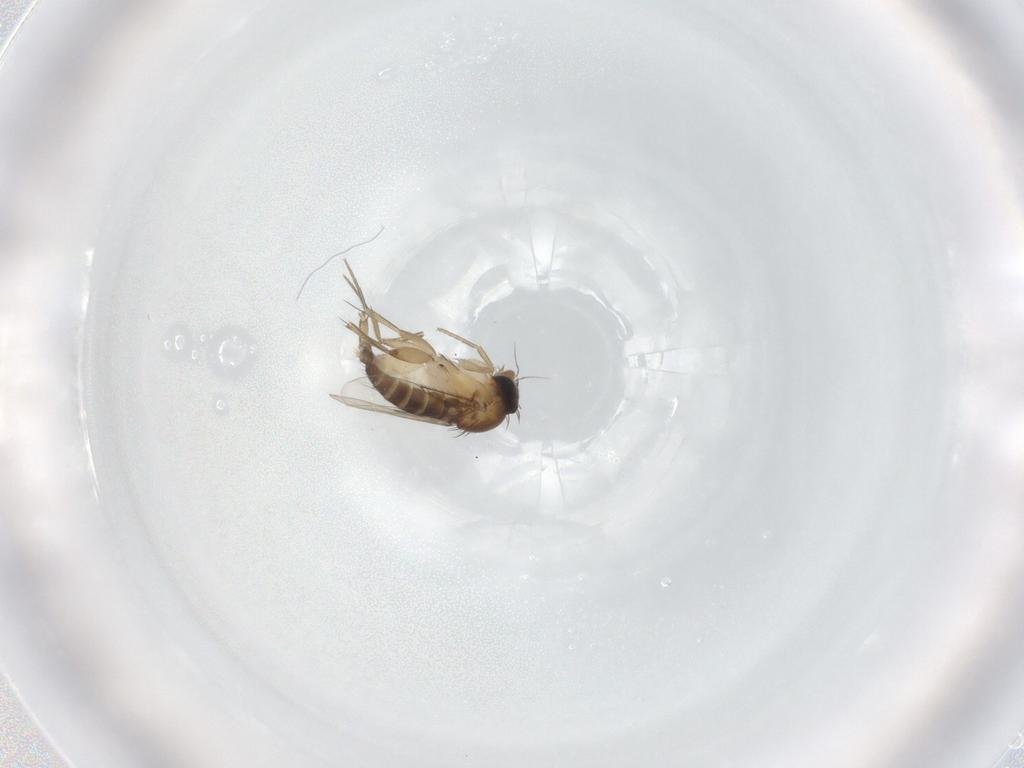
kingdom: Animalia
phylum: Arthropoda
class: Insecta
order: Diptera
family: Phoridae
